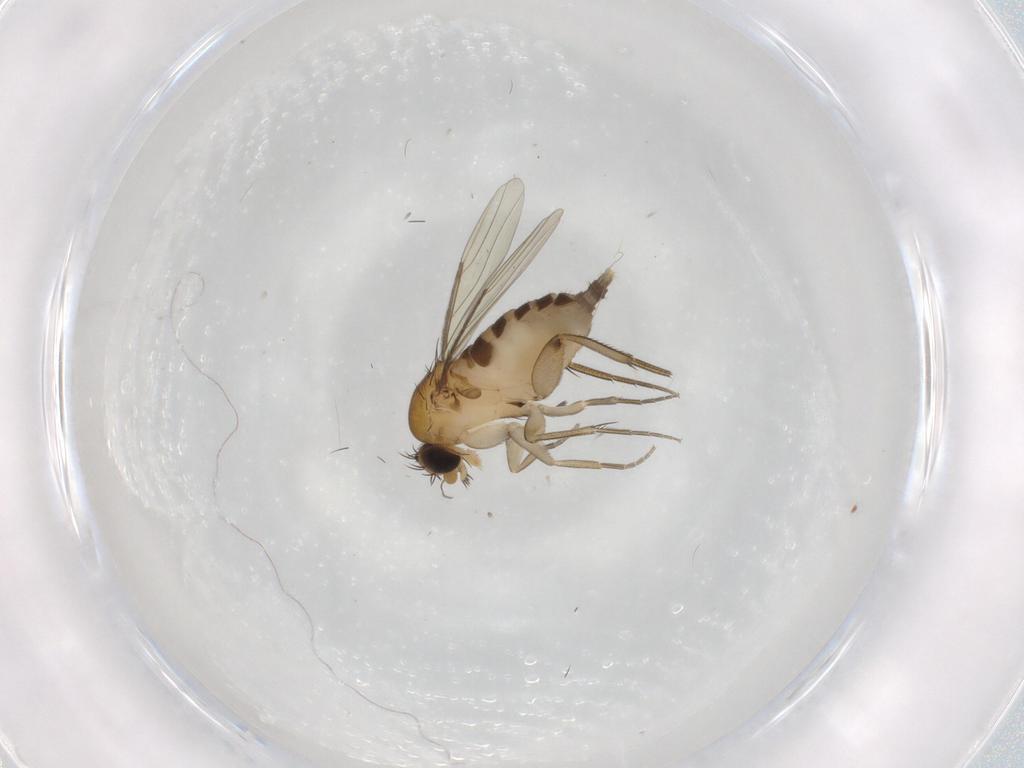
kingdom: Animalia
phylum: Arthropoda
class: Insecta
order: Diptera
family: Phoridae
